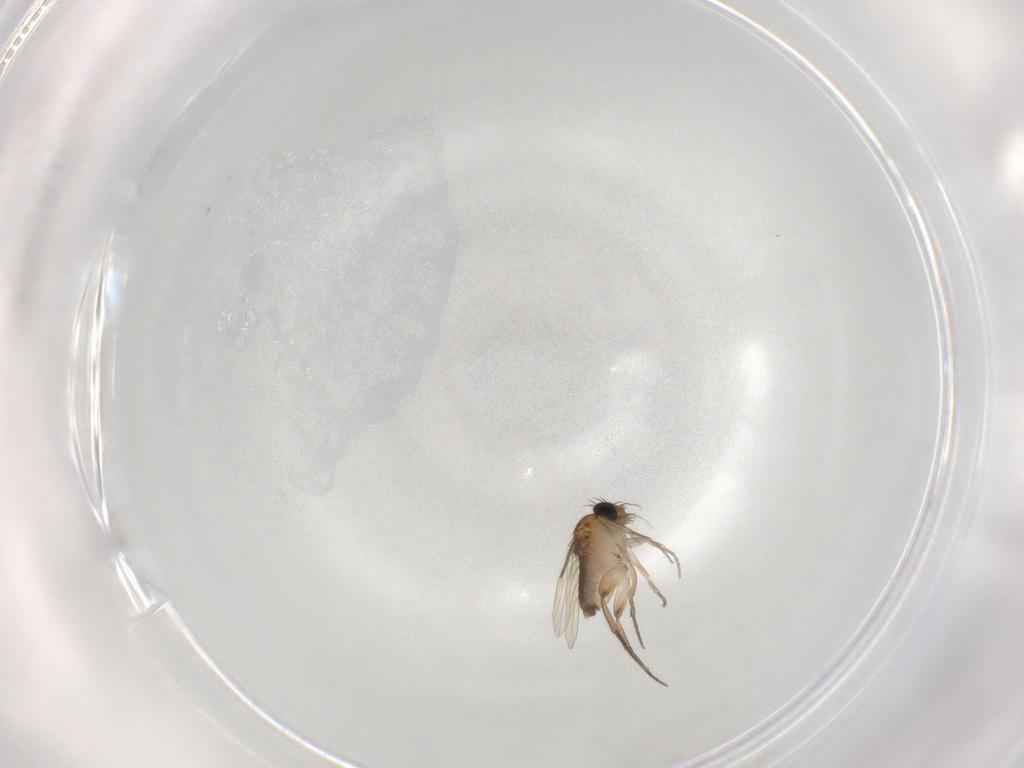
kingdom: Animalia
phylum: Arthropoda
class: Insecta
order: Diptera
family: Phoridae
